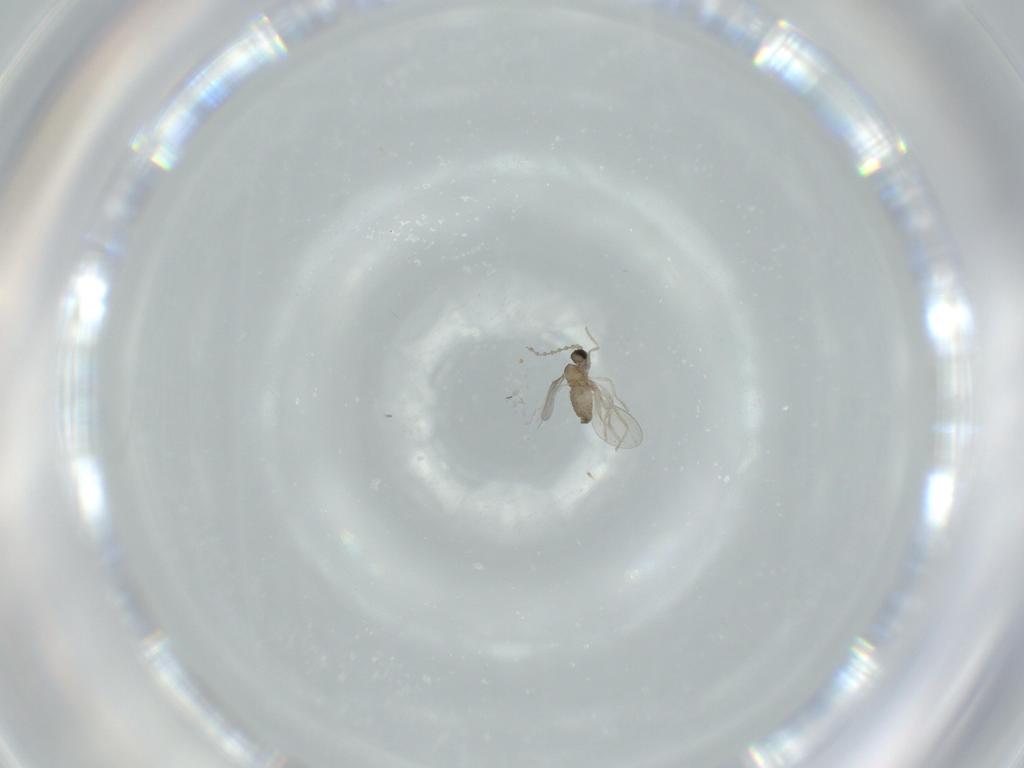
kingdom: Animalia
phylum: Arthropoda
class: Insecta
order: Diptera
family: Cecidomyiidae
